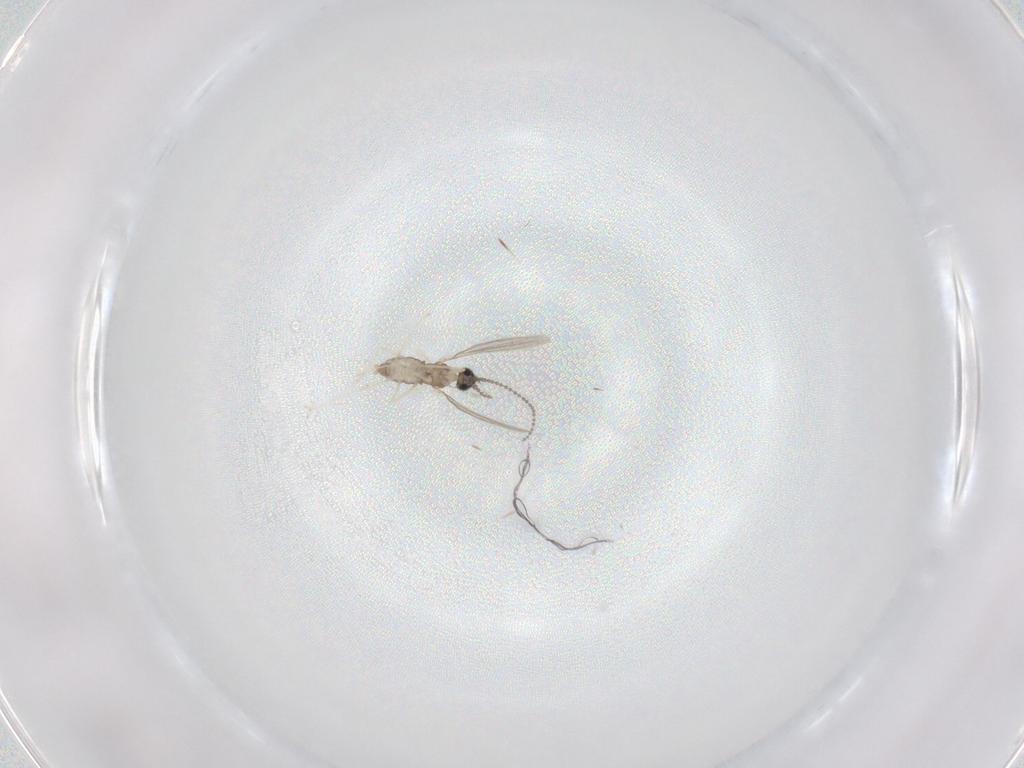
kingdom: Animalia
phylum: Arthropoda
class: Insecta
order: Diptera
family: Cecidomyiidae
